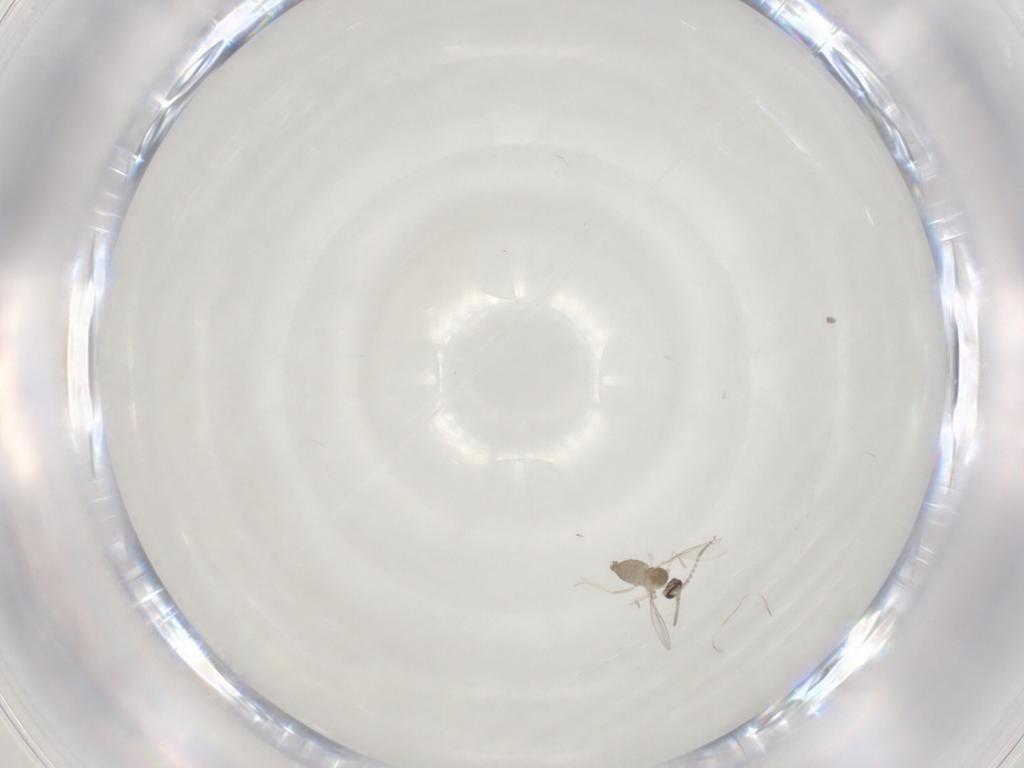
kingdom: Animalia
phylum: Arthropoda
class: Insecta
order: Diptera
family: Cecidomyiidae
